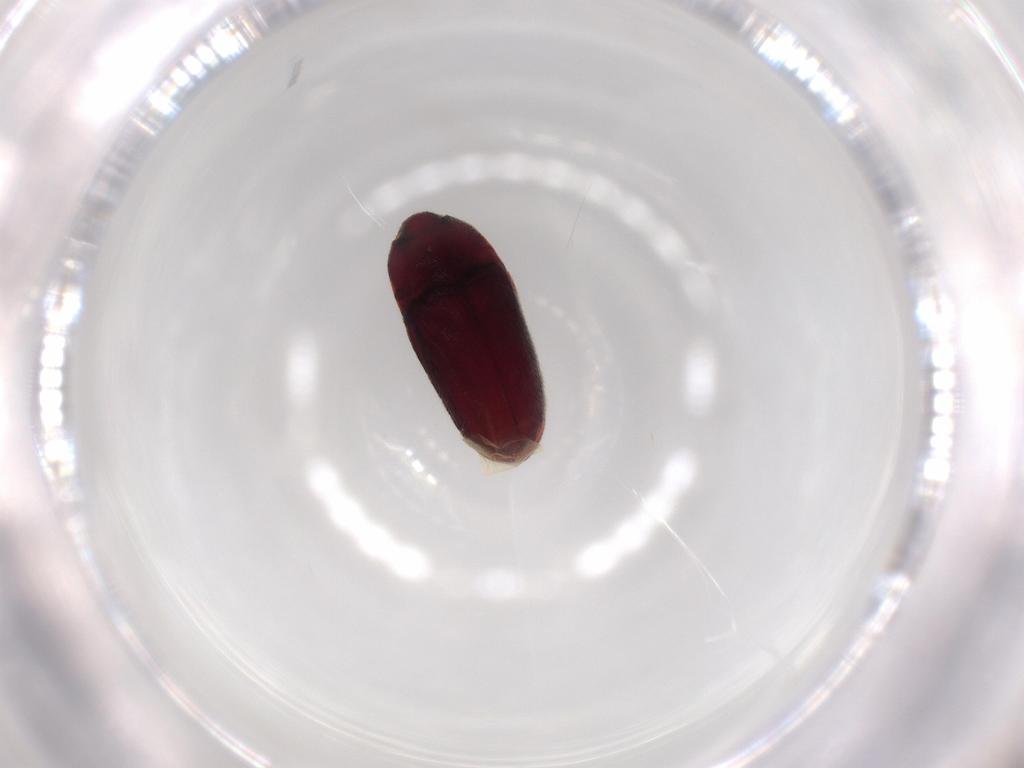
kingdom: Animalia
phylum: Arthropoda
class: Insecta
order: Coleoptera
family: Throscidae
